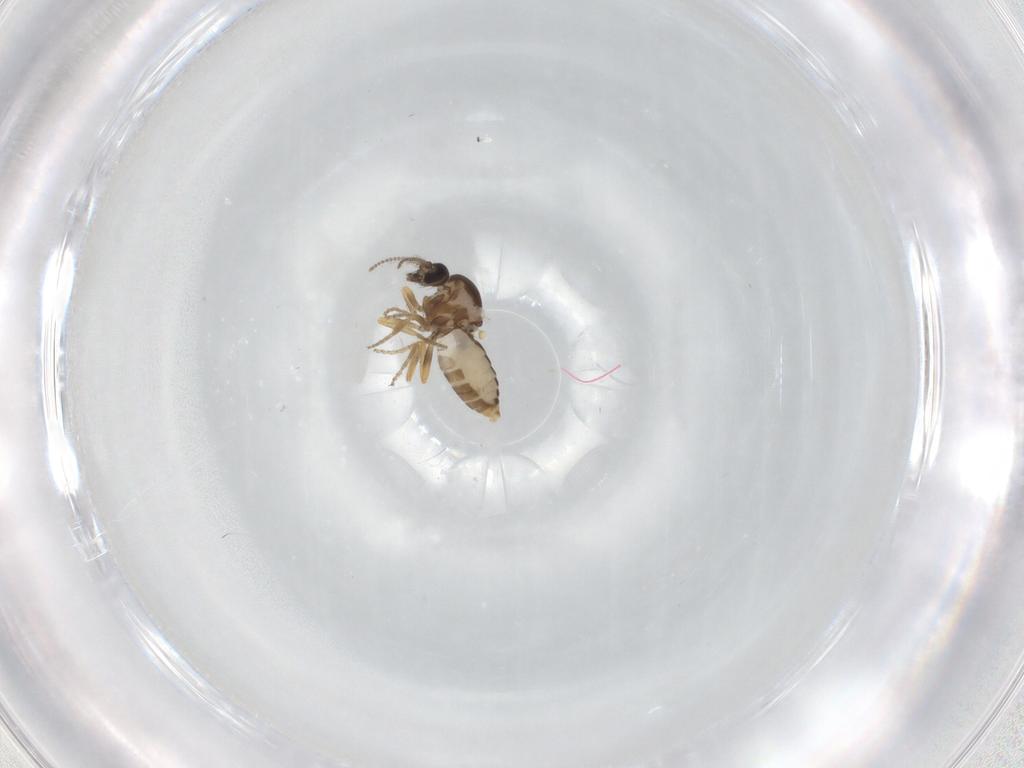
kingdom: Animalia
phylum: Arthropoda
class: Insecta
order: Diptera
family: Ceratopogonidae
